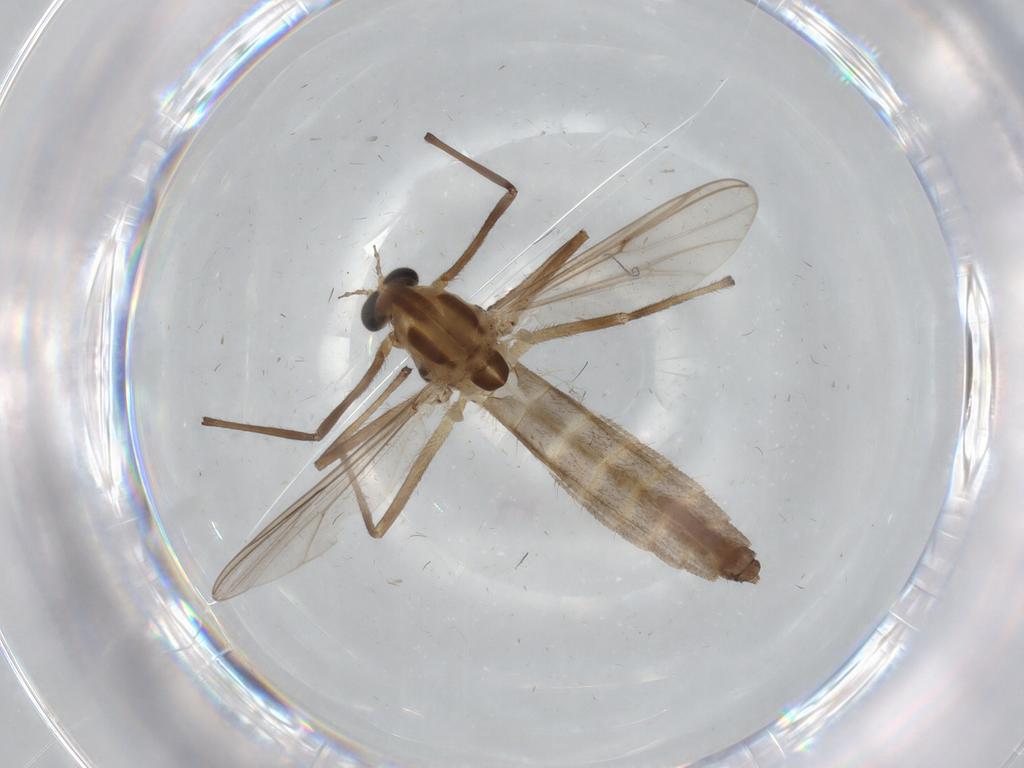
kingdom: Animalia
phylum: Arthropoda
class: Insecta
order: Diptera
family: Chironomidae
